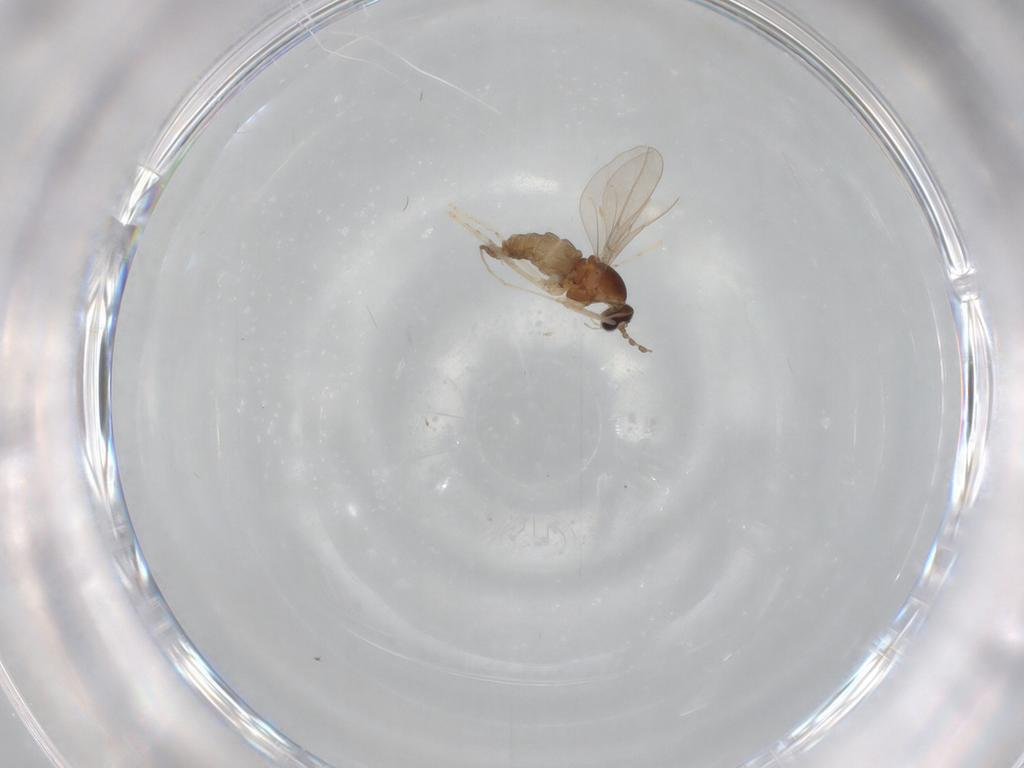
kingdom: Animalia
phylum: Arthropoda
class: Insecta
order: Diptera
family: Cecidomyiidae
